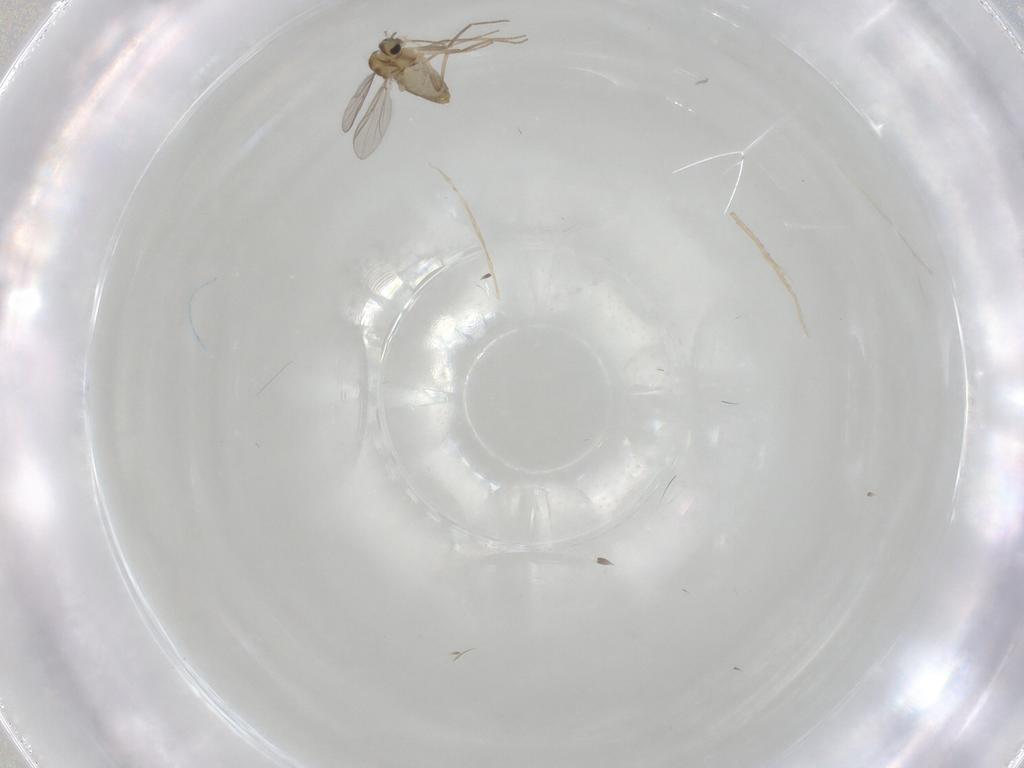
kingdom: Animalia
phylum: Arthropoda
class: Insecta
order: Diptera
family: Chironomidae
